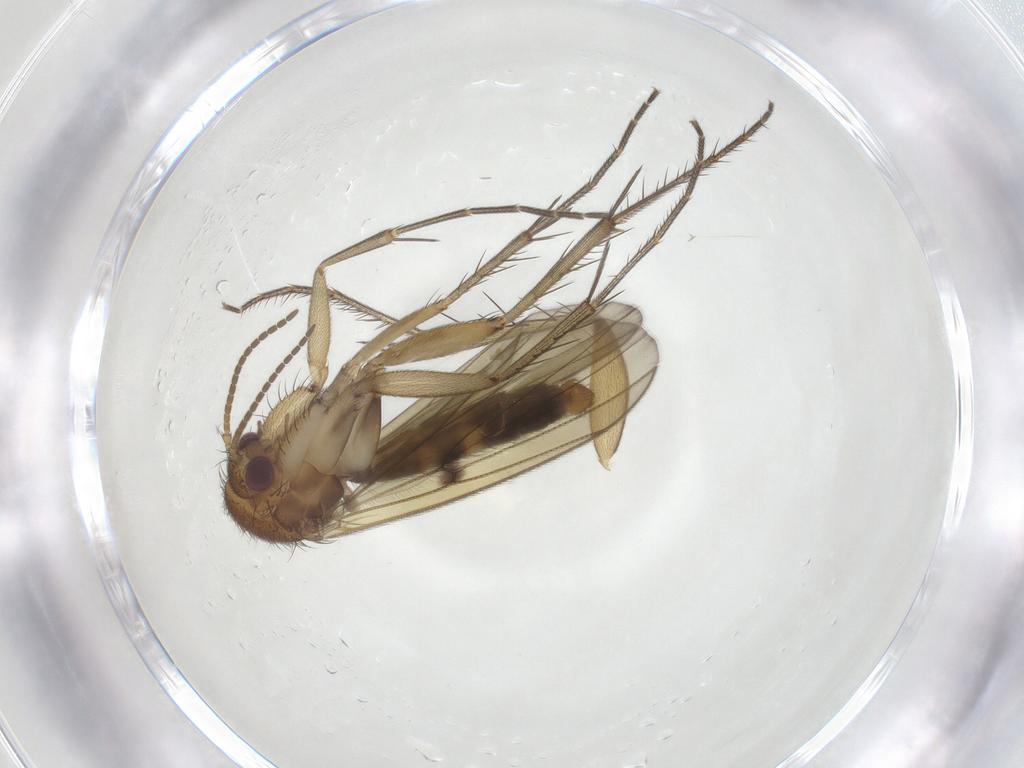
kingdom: Animalia
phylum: Arthropoda
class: Insecta
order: Diptera
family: Mycetophilidae
